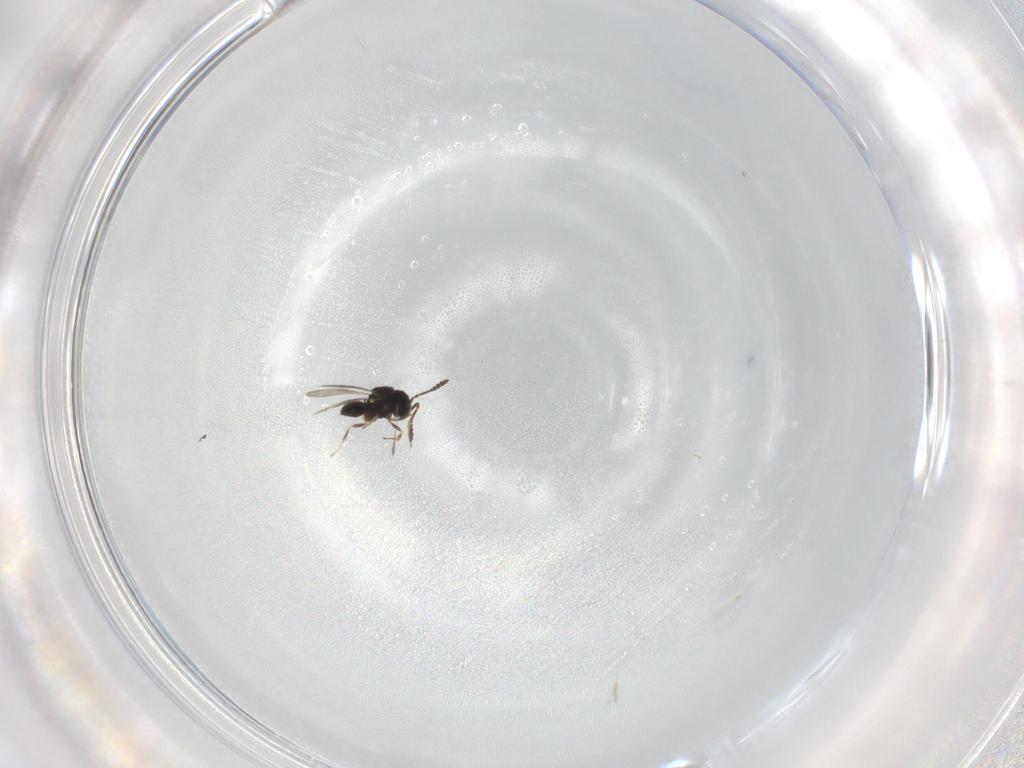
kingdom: Animalia
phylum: Arthropoda
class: Insecta
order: Hymenoptera
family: Scelionidae
